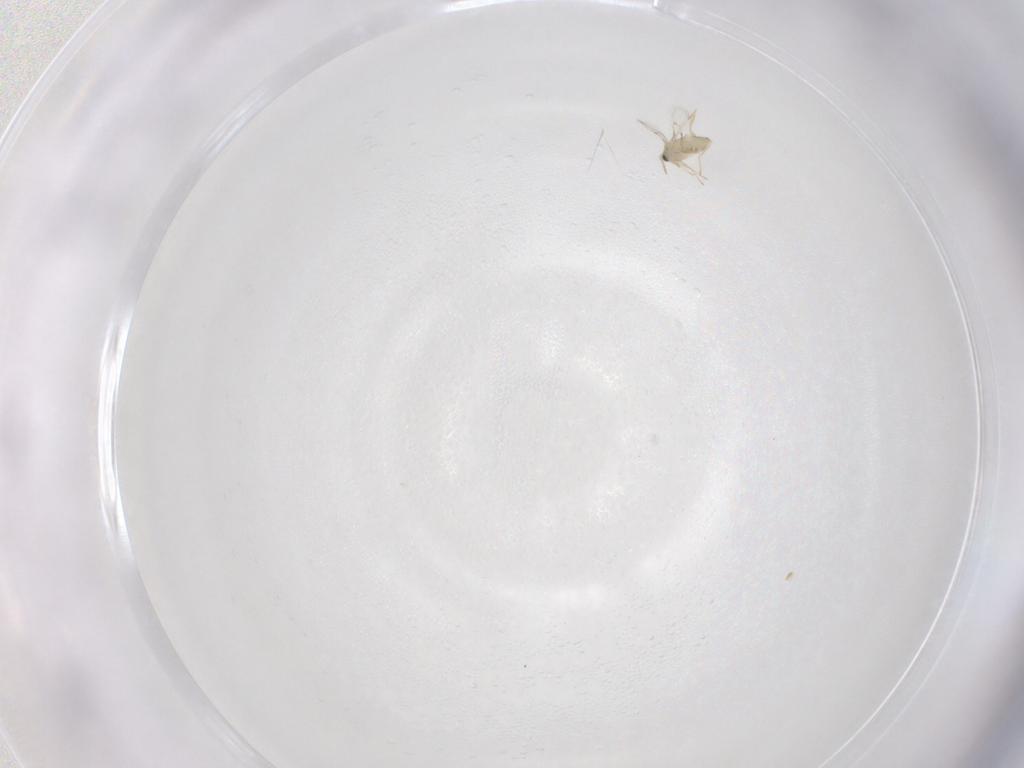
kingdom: Animalia
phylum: Arthropoda
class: Insecta
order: Hymenoptera
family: Trichogrammatidae
